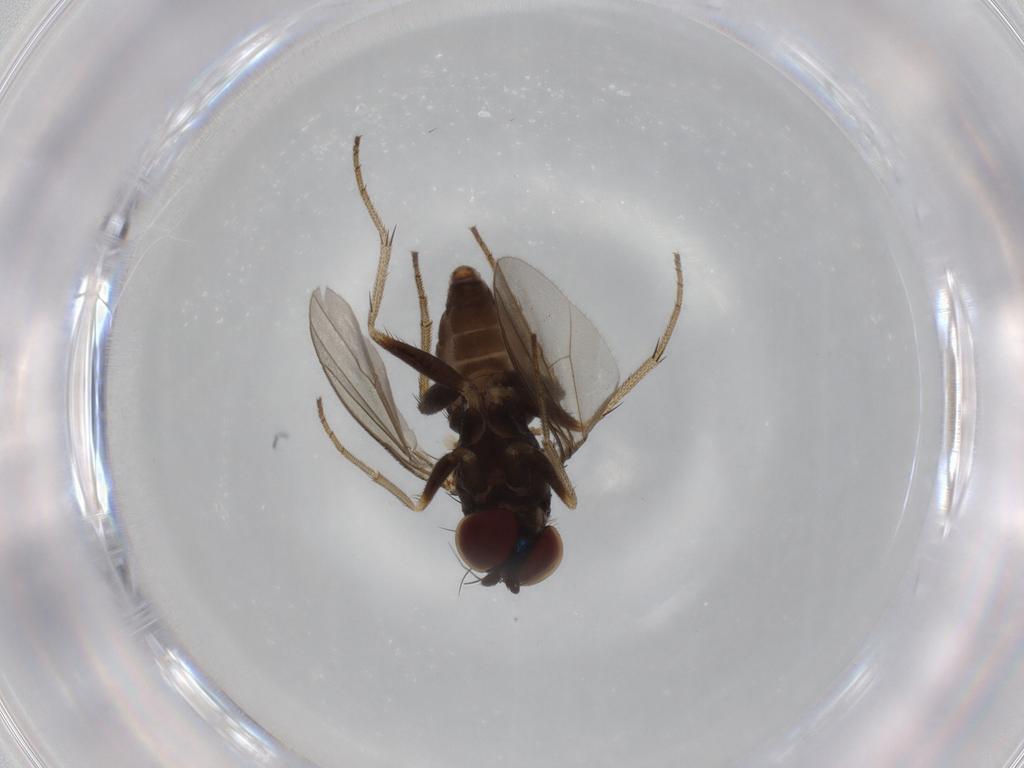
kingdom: Animalia
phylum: Arthropoda
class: Insecta
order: Diptera
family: Dolichopodidae
